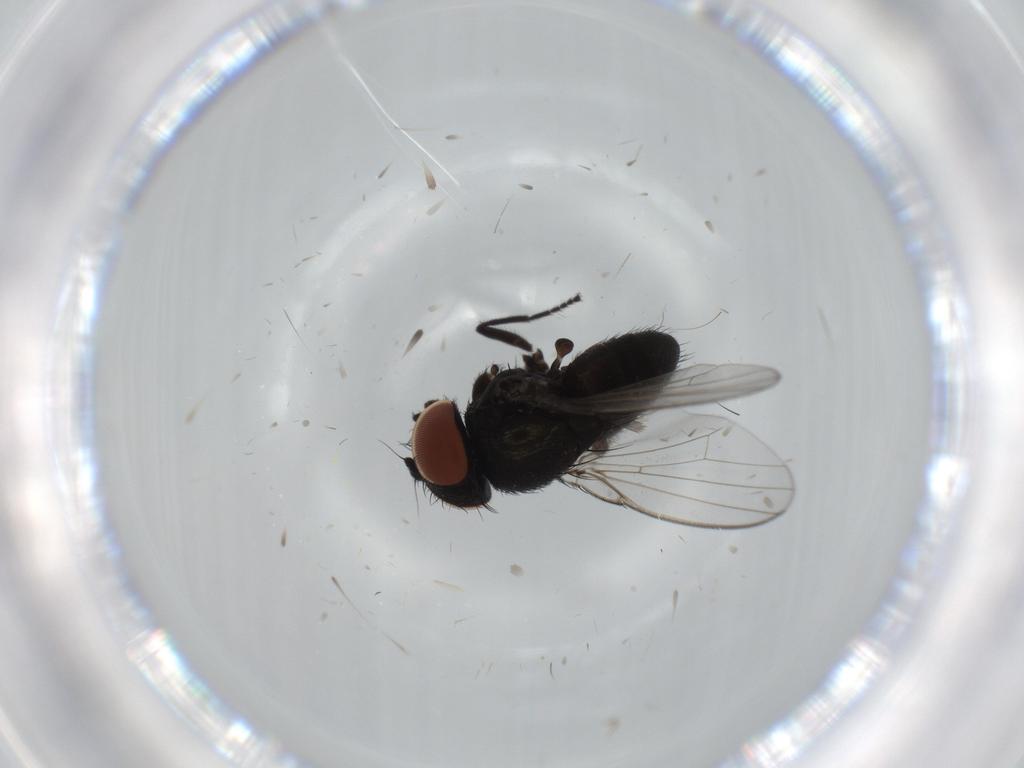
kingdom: Animalia
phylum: Arthropoda
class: Insecta
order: Diptera
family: Milichiidae
